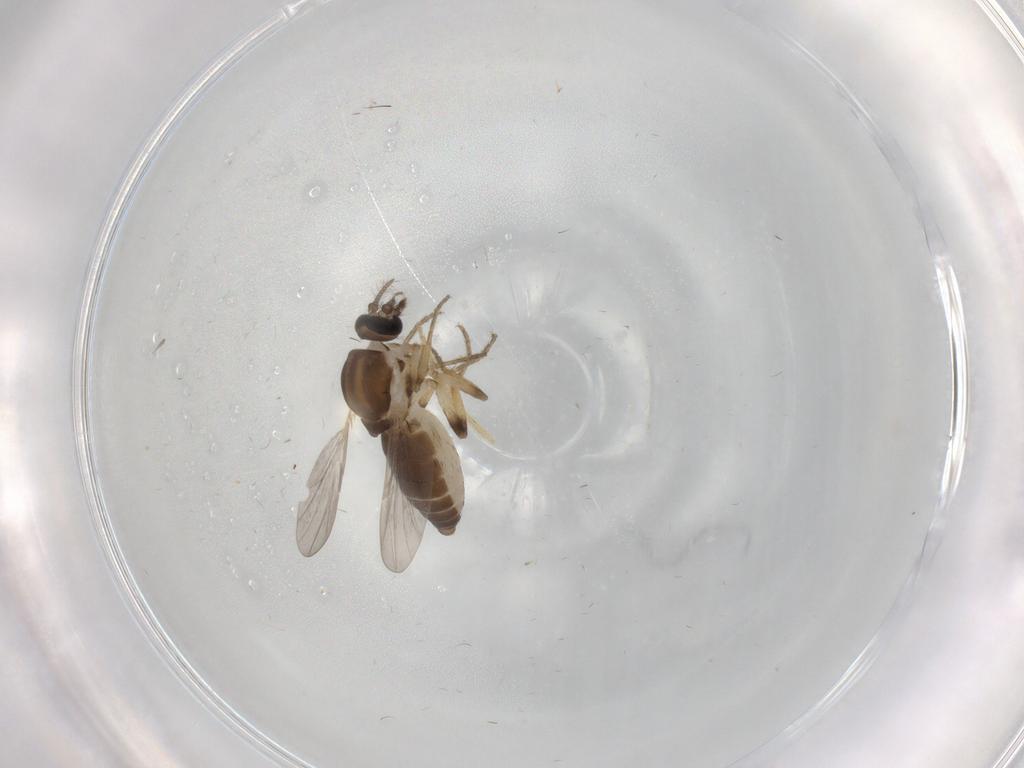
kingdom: Animalia
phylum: Arthropoda
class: Insecta
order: Diptera
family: Ceratopogonidae
